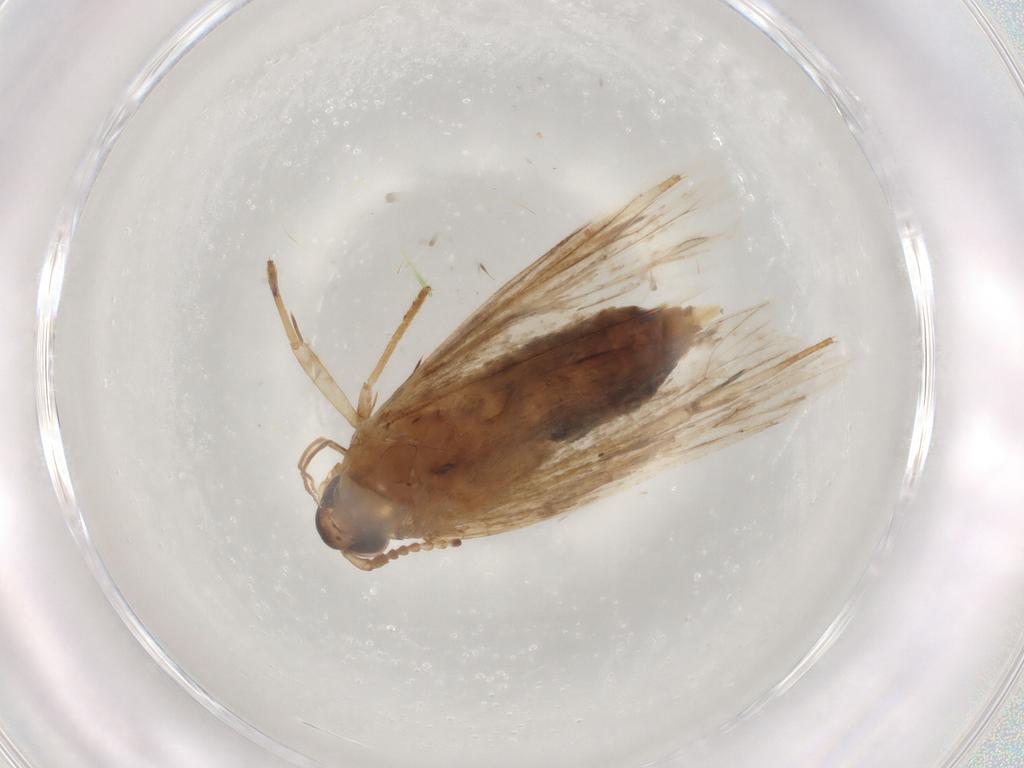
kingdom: Animalia
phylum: Arthropoda
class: Insecta
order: Lepidoptera
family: Lecithoceridae
